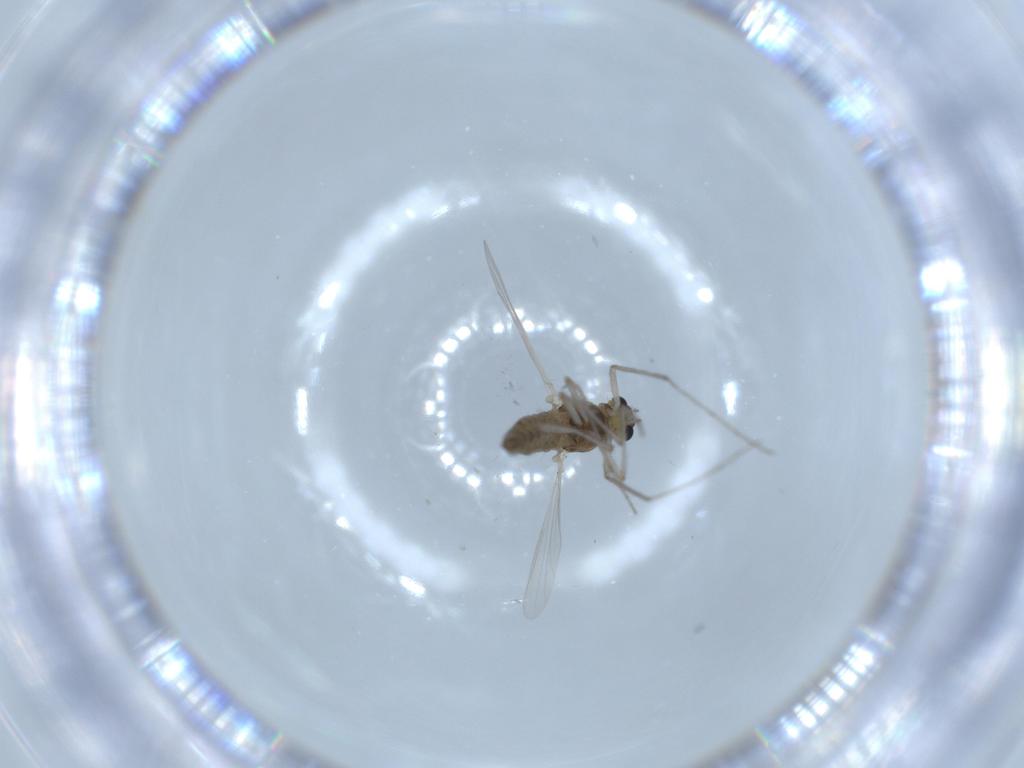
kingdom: Animalia
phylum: Arthropoda
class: Insecta
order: Diptera
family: Chironomidae
